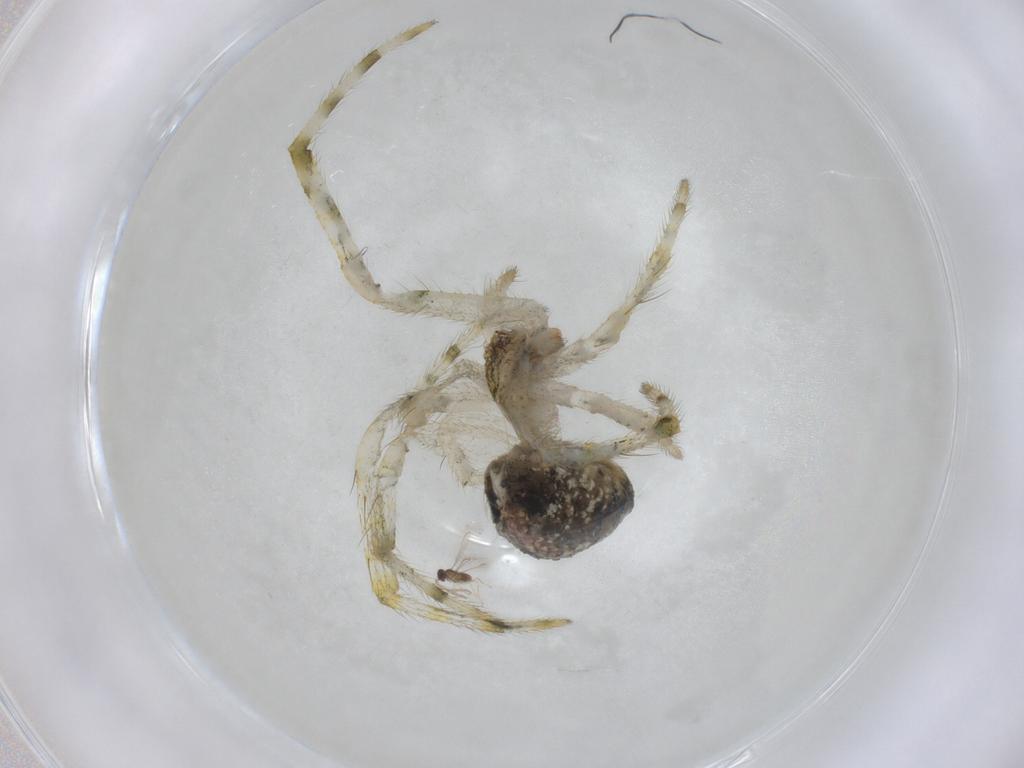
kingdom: Animalia
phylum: Arthropoda
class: Arachnida
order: Araneae
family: Theridiidae
